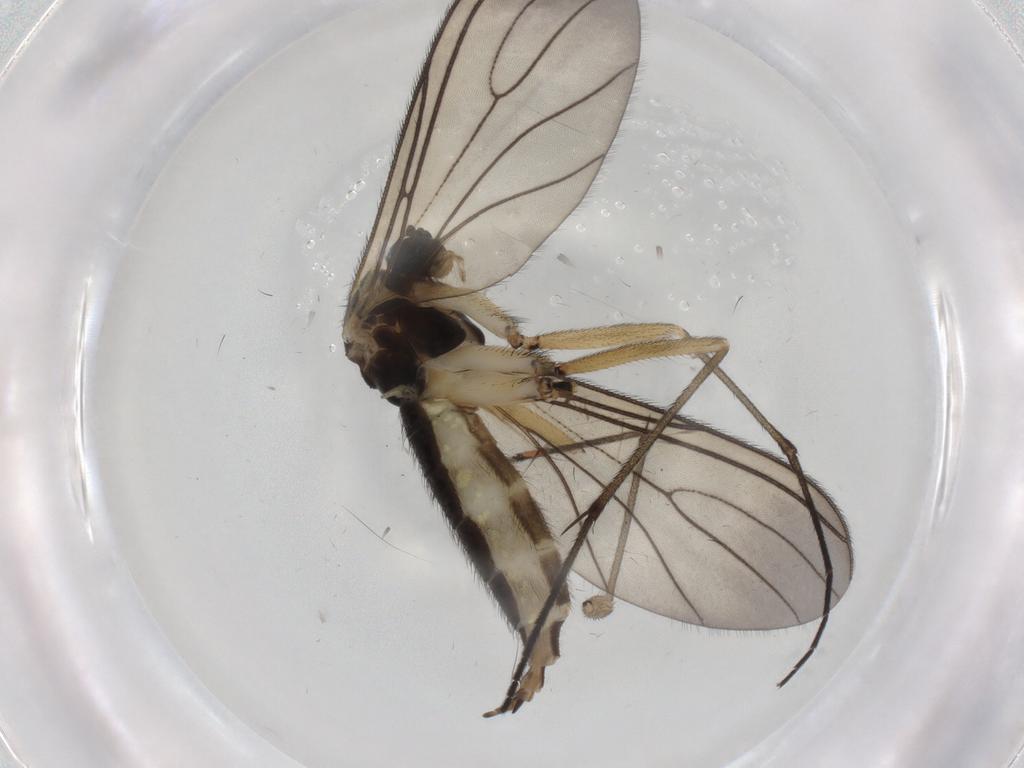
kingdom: Animalia
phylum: Arthropoda
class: Insecta
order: Diptera
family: Sciaridae
